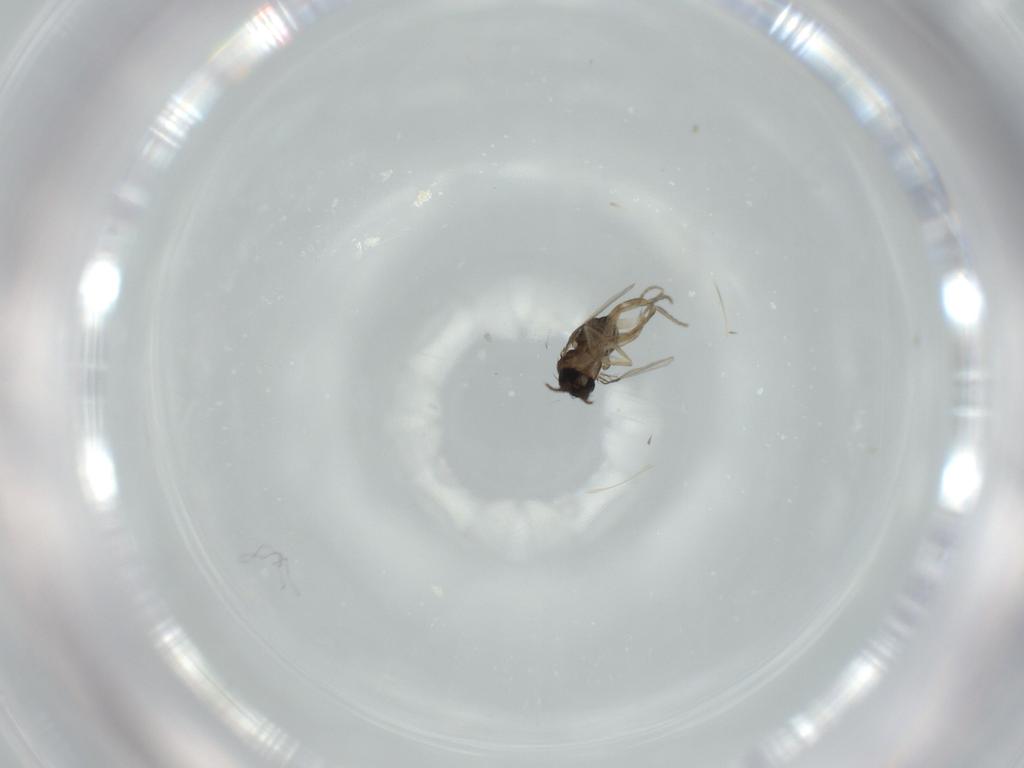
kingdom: Animalia
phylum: Arthropoda
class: Insecta
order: Diptera
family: Phoridae
